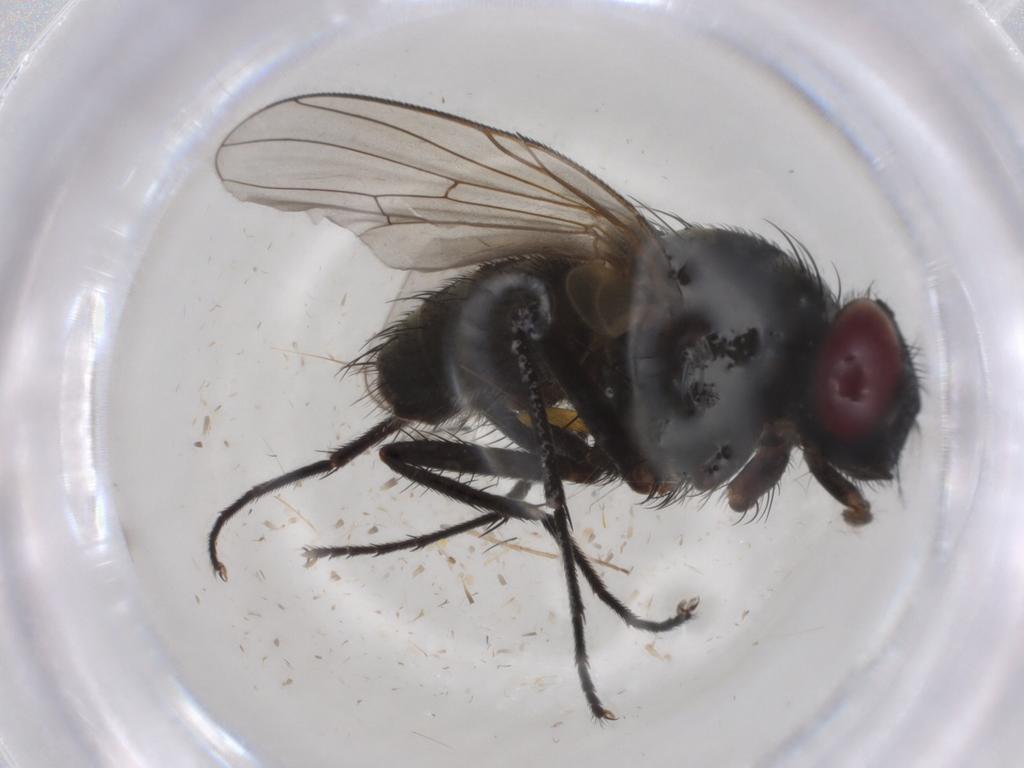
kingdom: Animalia
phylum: Arthropoda
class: Insecta
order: Diptera
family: Muscidae
